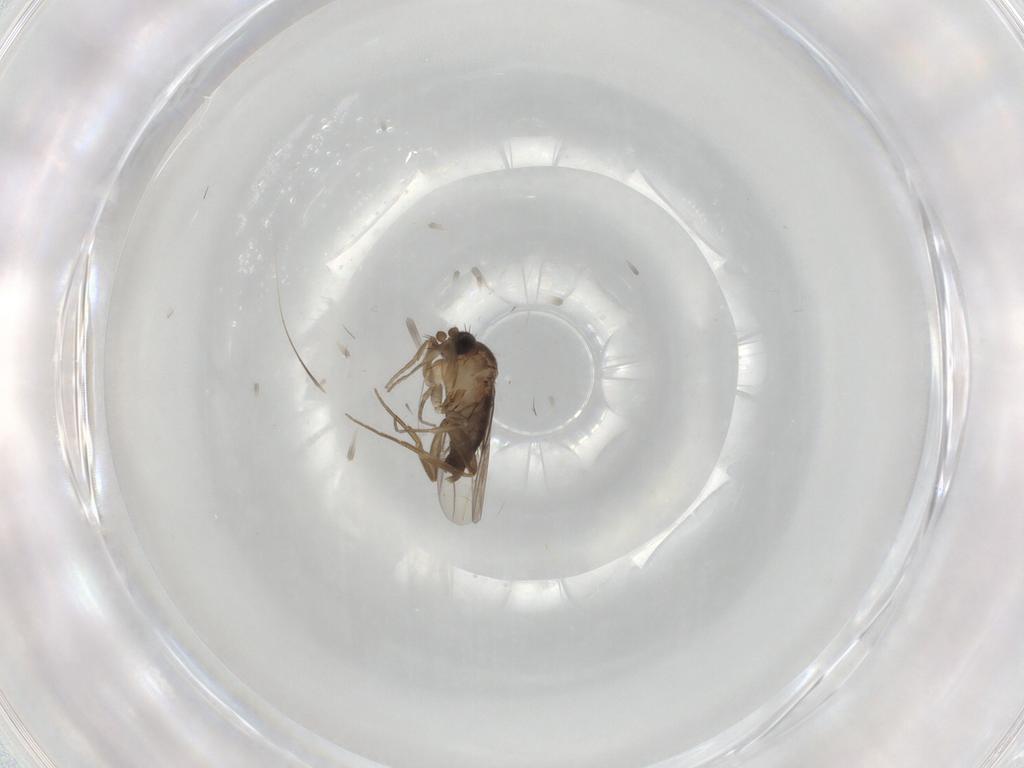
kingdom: Animalia
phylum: Arthropoda
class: Insecta
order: Diptera
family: Phoridae
